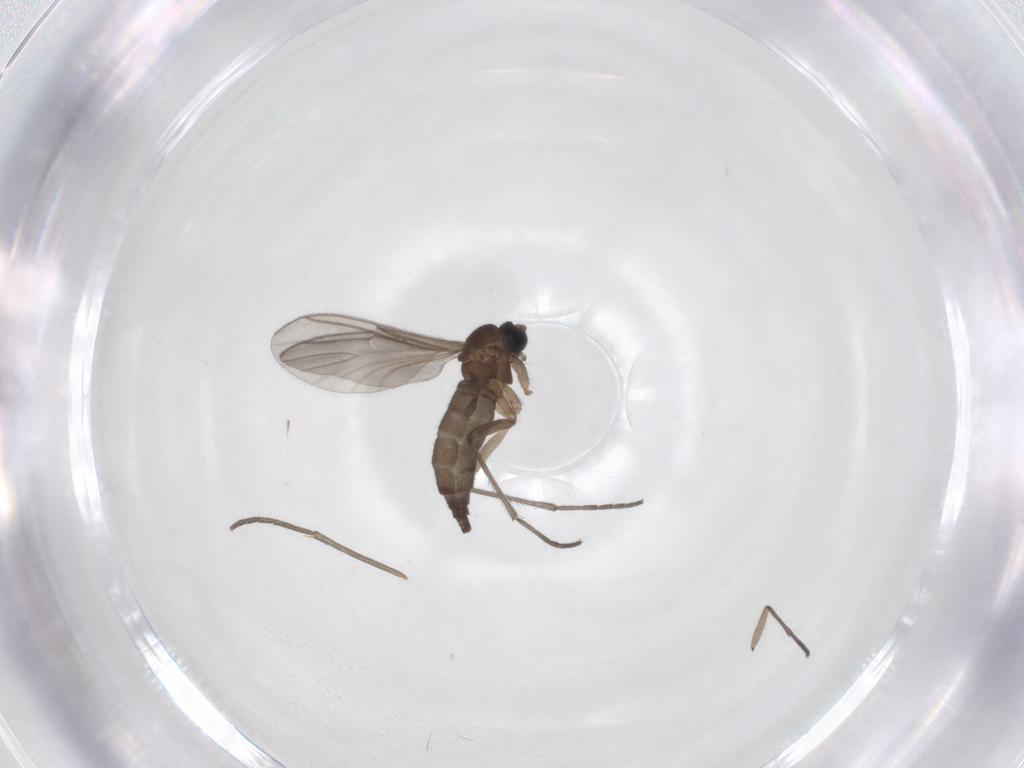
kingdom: Animalia
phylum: Arthropoda
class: Insecta
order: Diptera
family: Sciaridae
